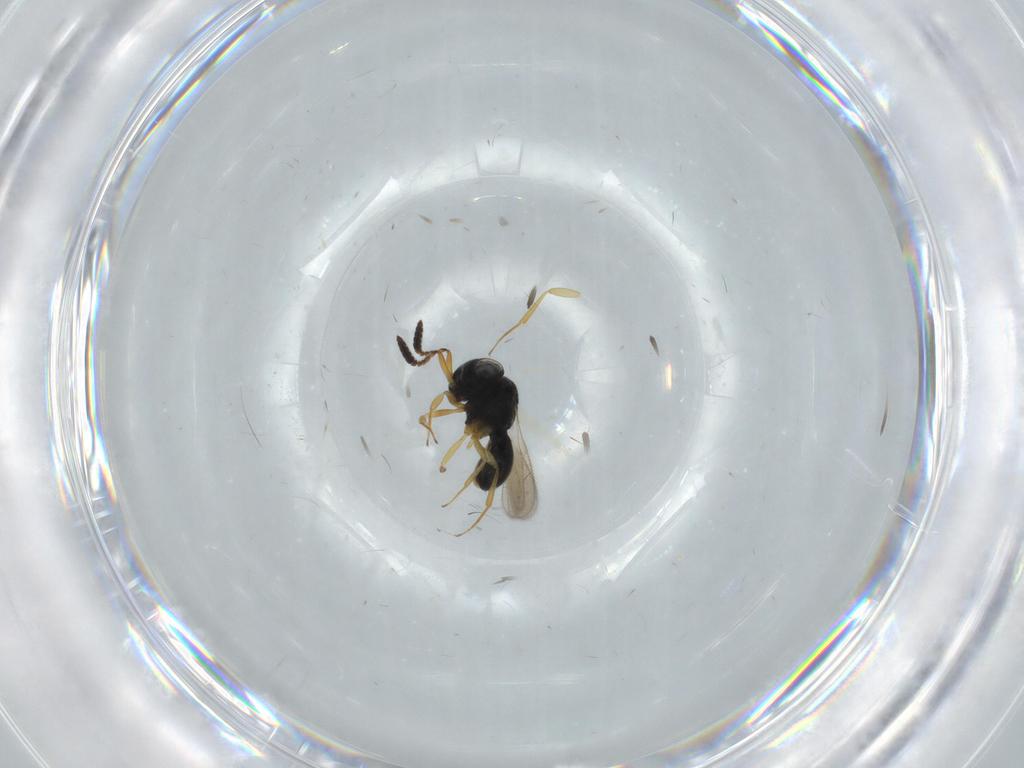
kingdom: Animalia
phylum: Arthropoda
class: Insecta
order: Hymenoptera
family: Scelionidae
